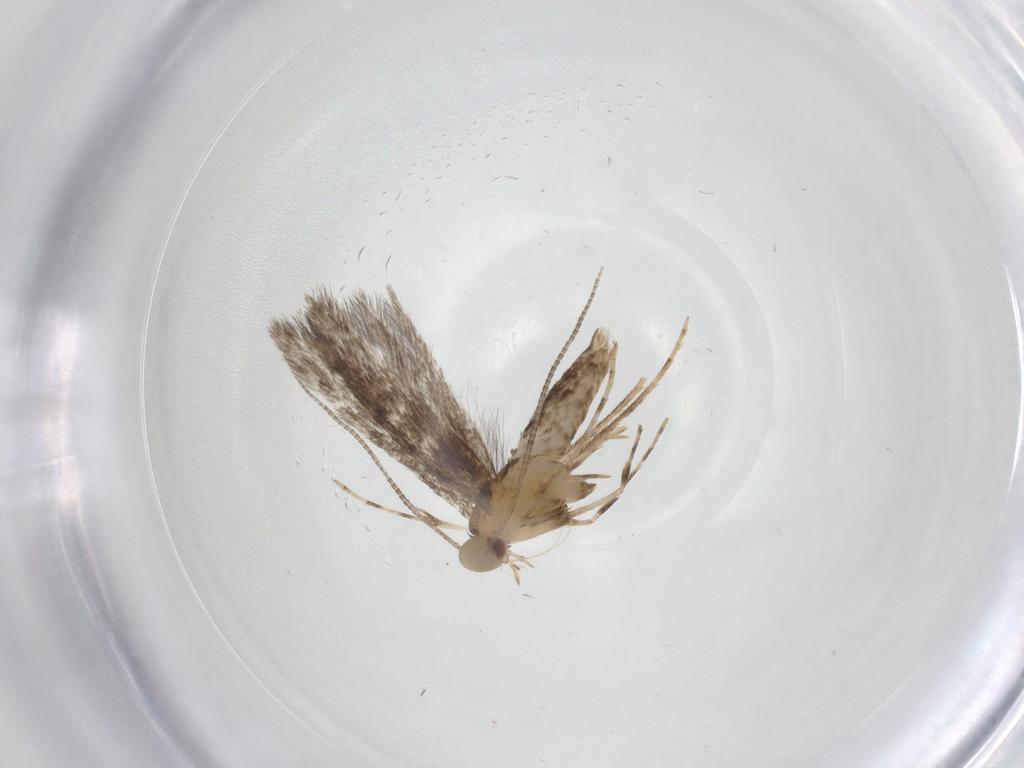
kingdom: Animalia
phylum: Arthropoda
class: Insecta
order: Lepidoptera
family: Gracillariidae
